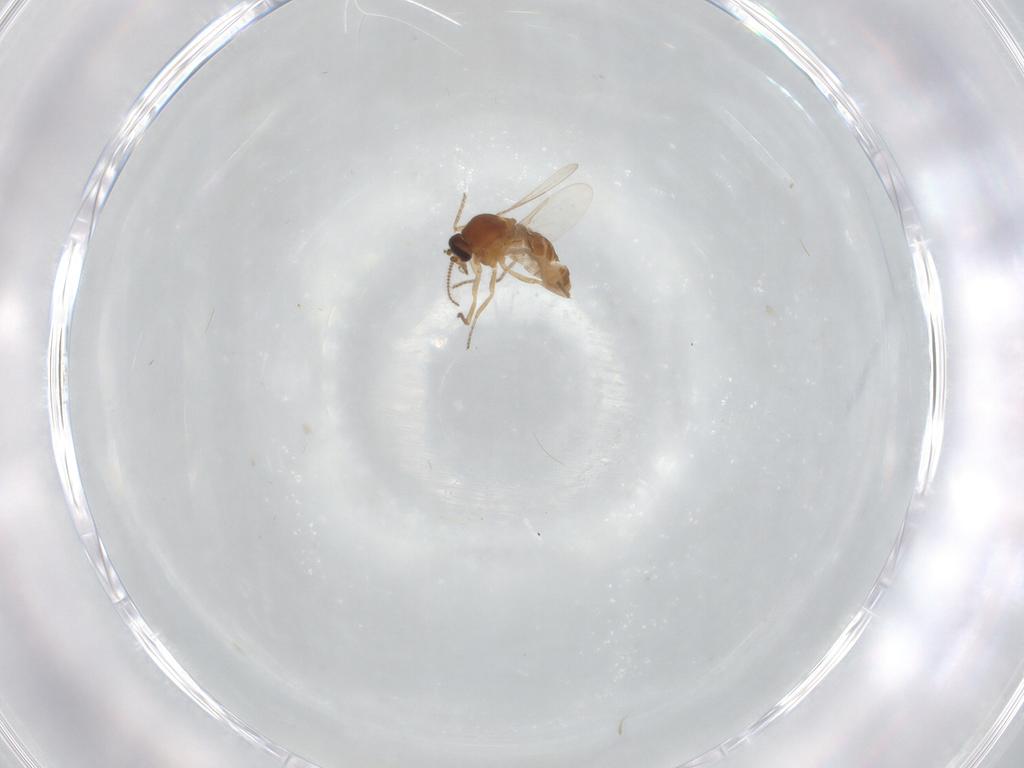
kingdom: Animalia
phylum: Arthropoda
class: Insecta
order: Diptera
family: Ceratopogonidae
